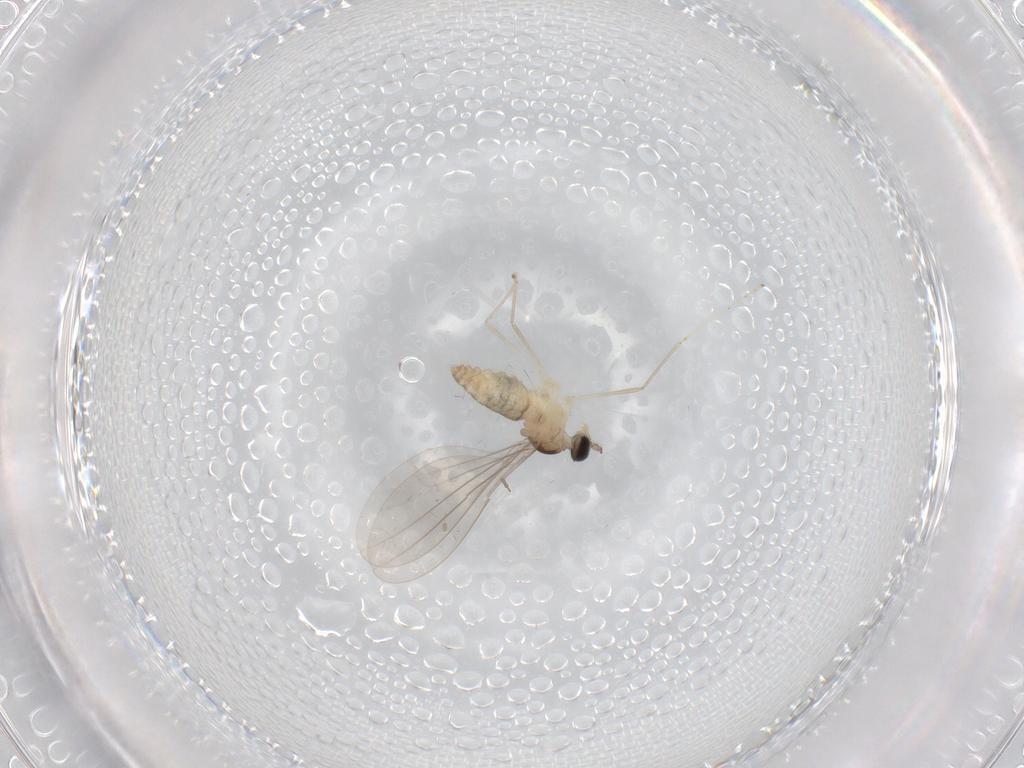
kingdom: Animalia
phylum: Arthropoda
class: Insecta
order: Diptera
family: Cecidomyiidae
